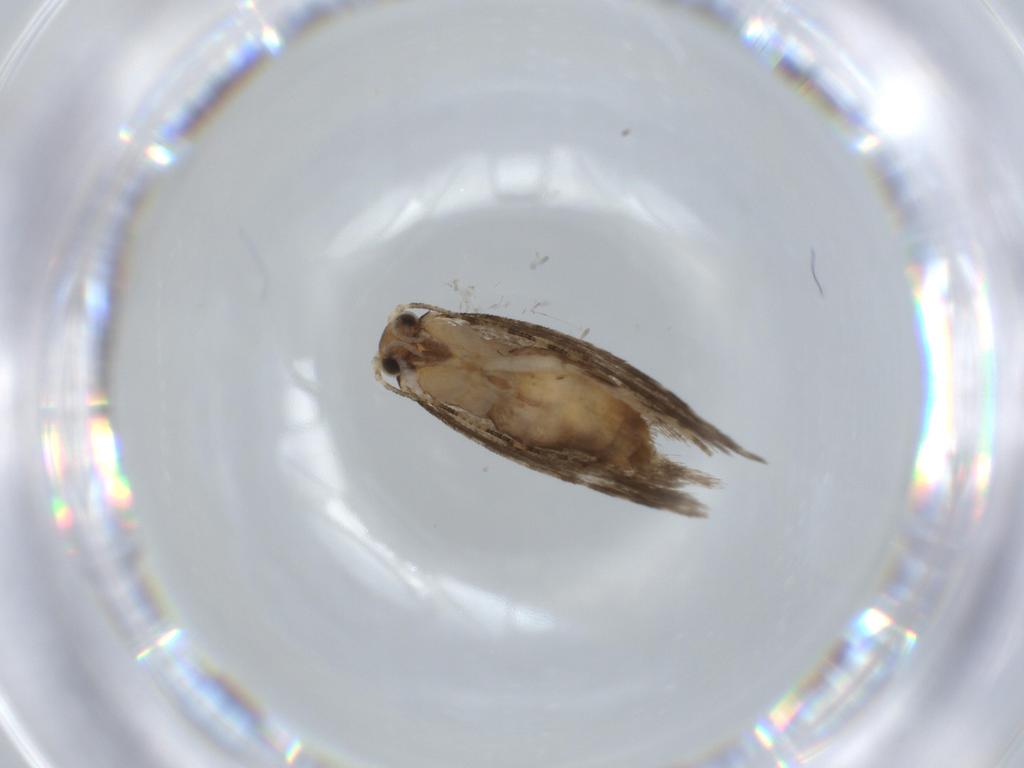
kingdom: Animalia
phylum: Arthropoda
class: Insecta
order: Lepidoptera
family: Tineidae
